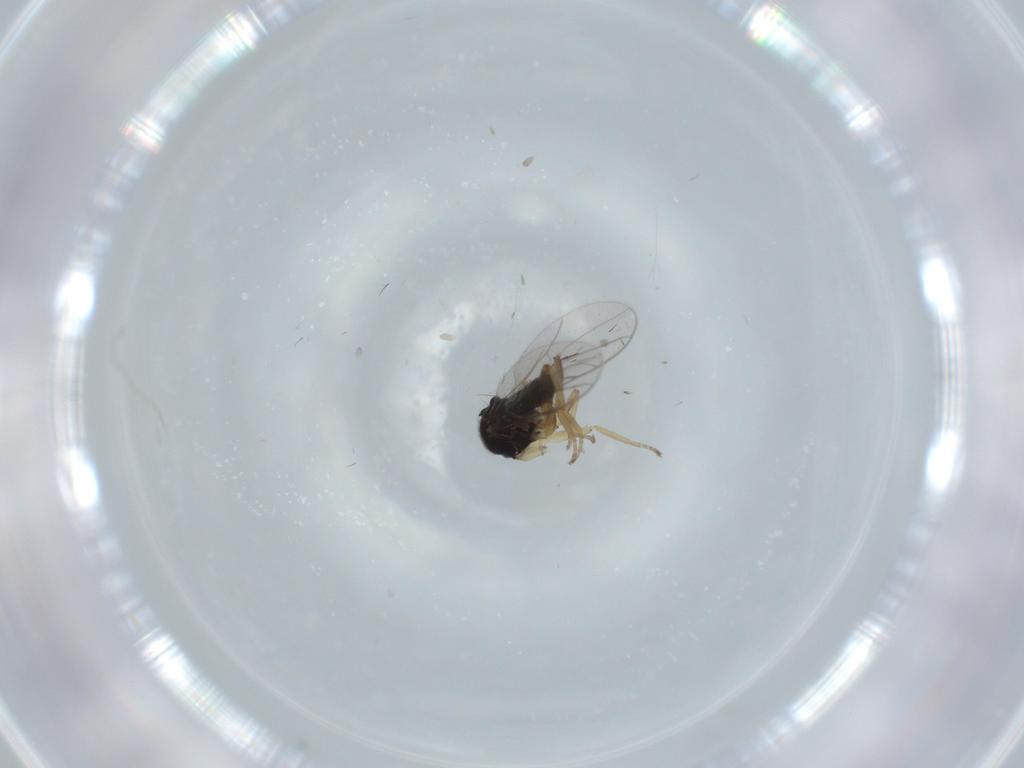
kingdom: Animalia
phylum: Arthropoda
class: Insecta
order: Diptera
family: Hybotidae
